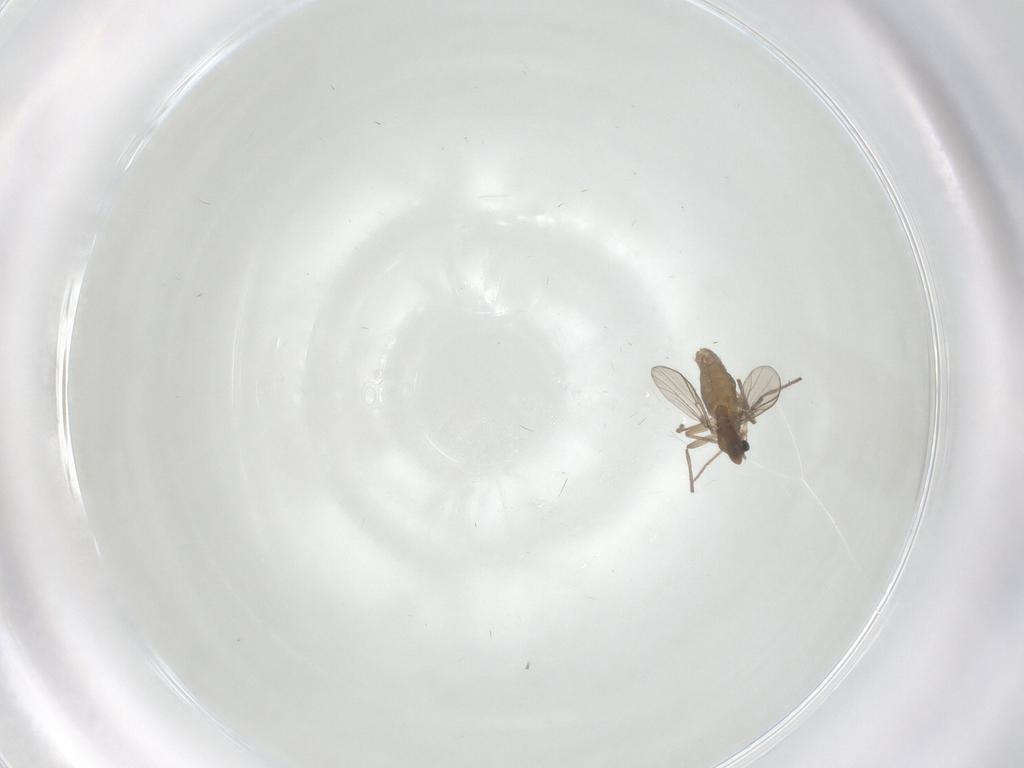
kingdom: Animalia
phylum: Arthropoda
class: Insecta
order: Diptera
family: Chironomidae
